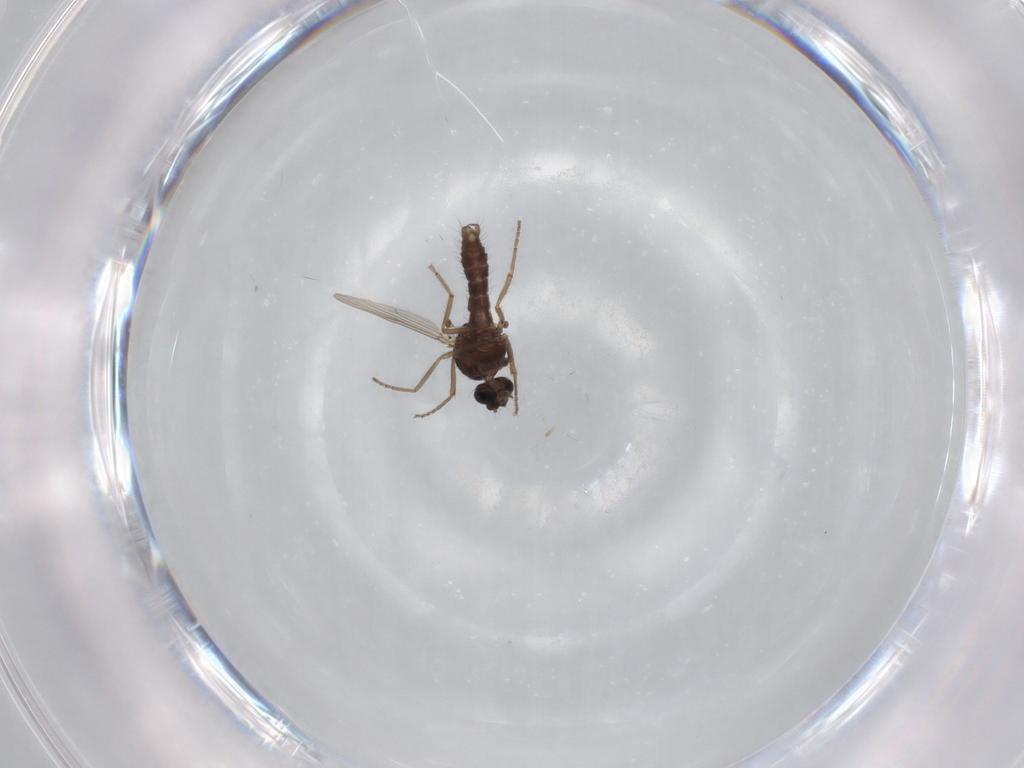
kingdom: Animalia
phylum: Arthropoda
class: Insecta
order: Diptera
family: Ceratopogonidae
